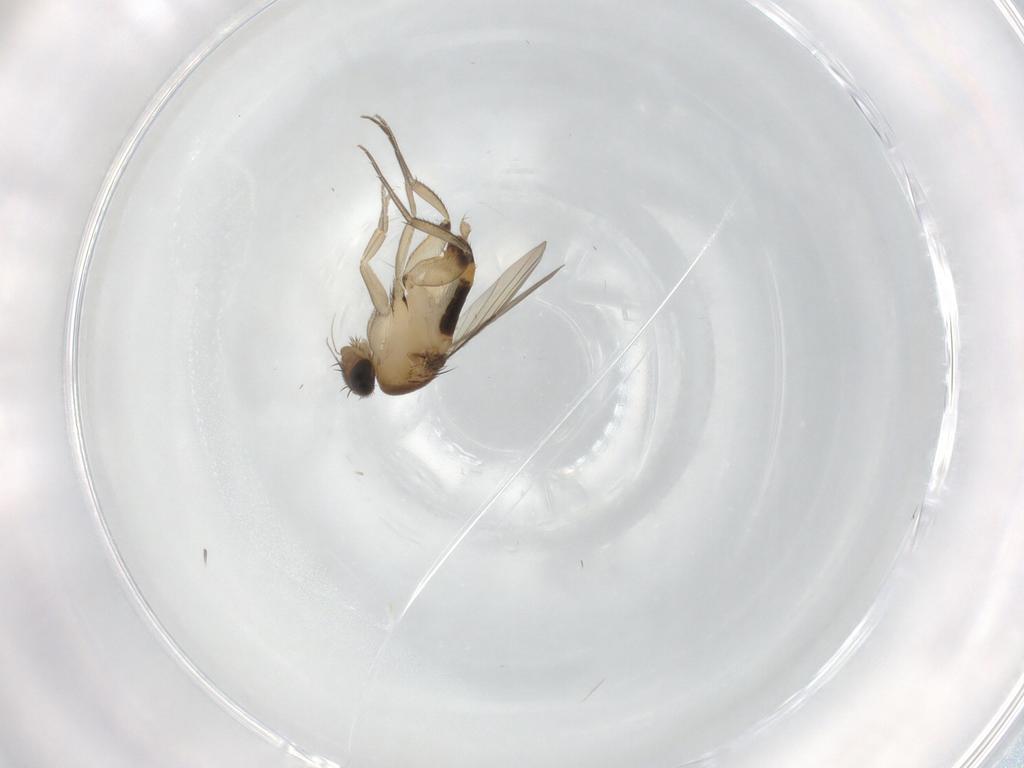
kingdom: Animalia
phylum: Arthropoda
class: Insecta
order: Diptera
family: Phoridae
